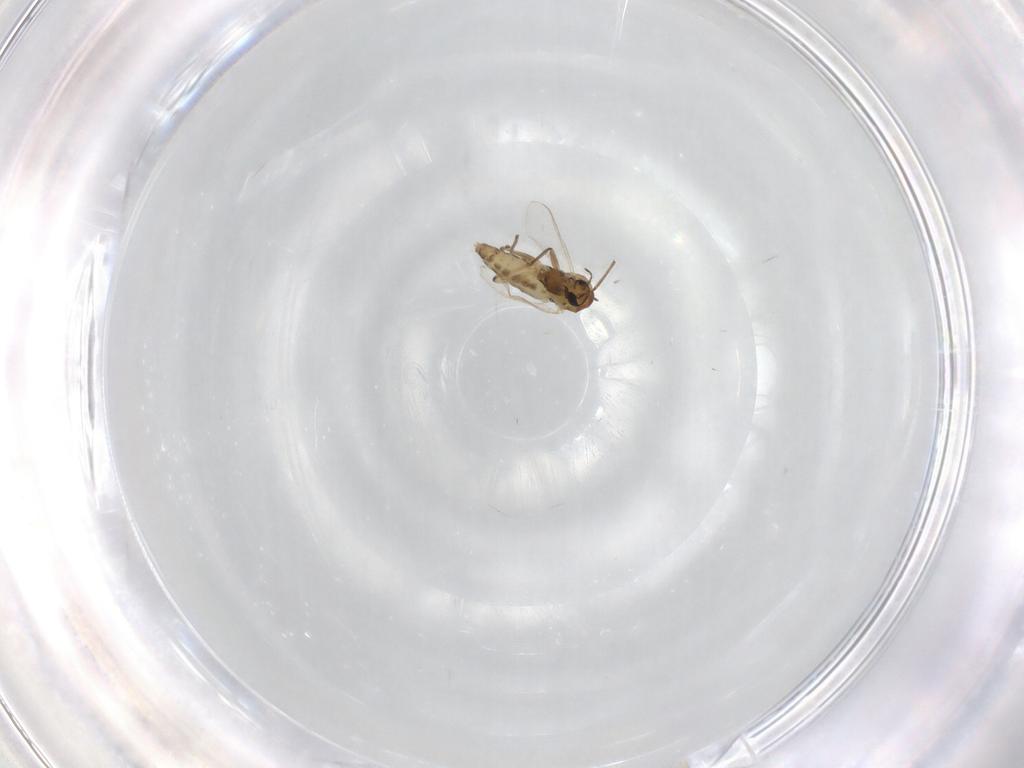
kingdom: Animalia
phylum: Arthropoda
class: Insecta
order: Diptera
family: Chironomidae
